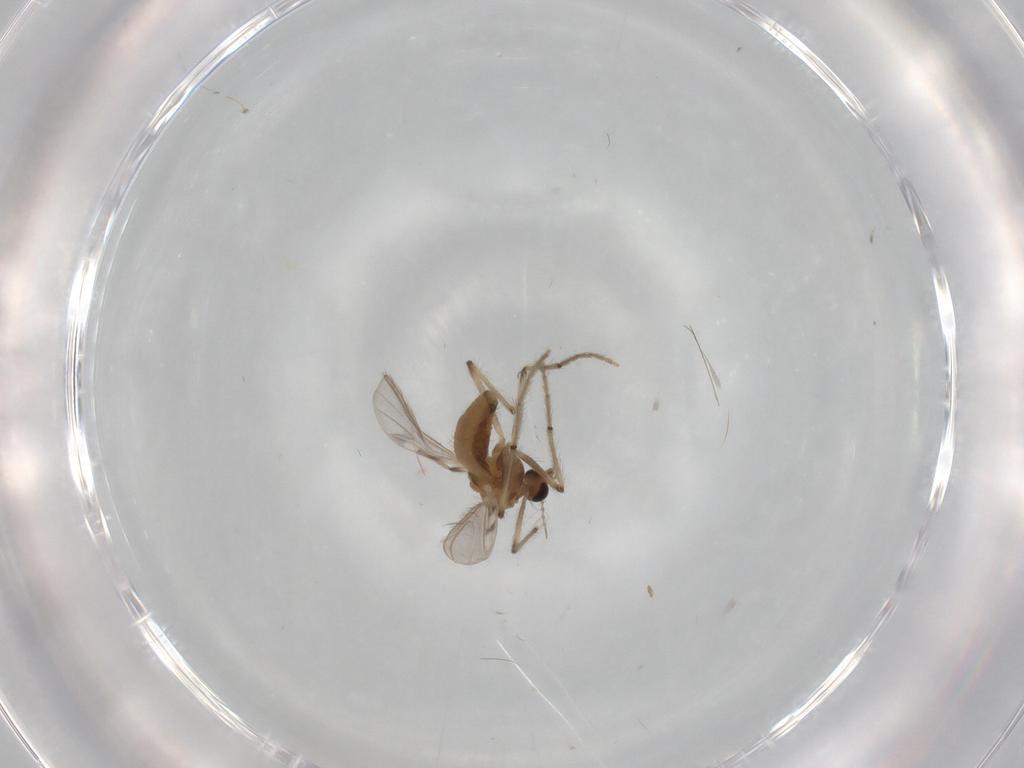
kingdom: Animalia
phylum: Arthropoda
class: Insecta
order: Diptera
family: Chironomidae
